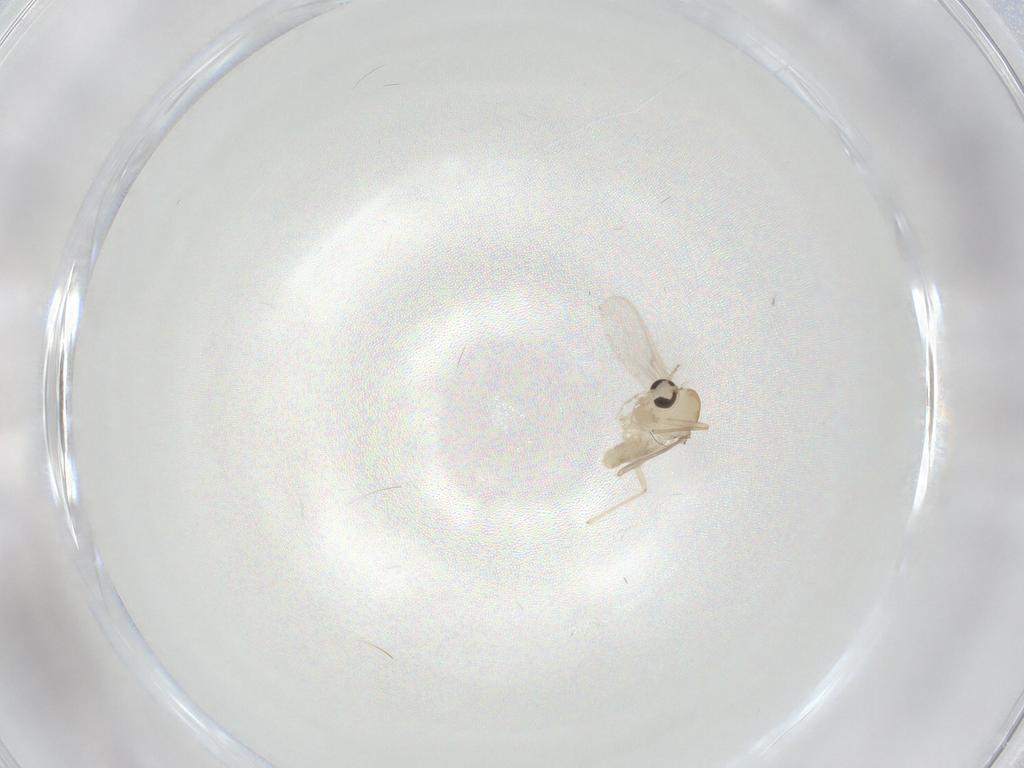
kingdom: Animalia
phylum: Arthropoda
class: Insecta
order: Diptera
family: Chironomidae
